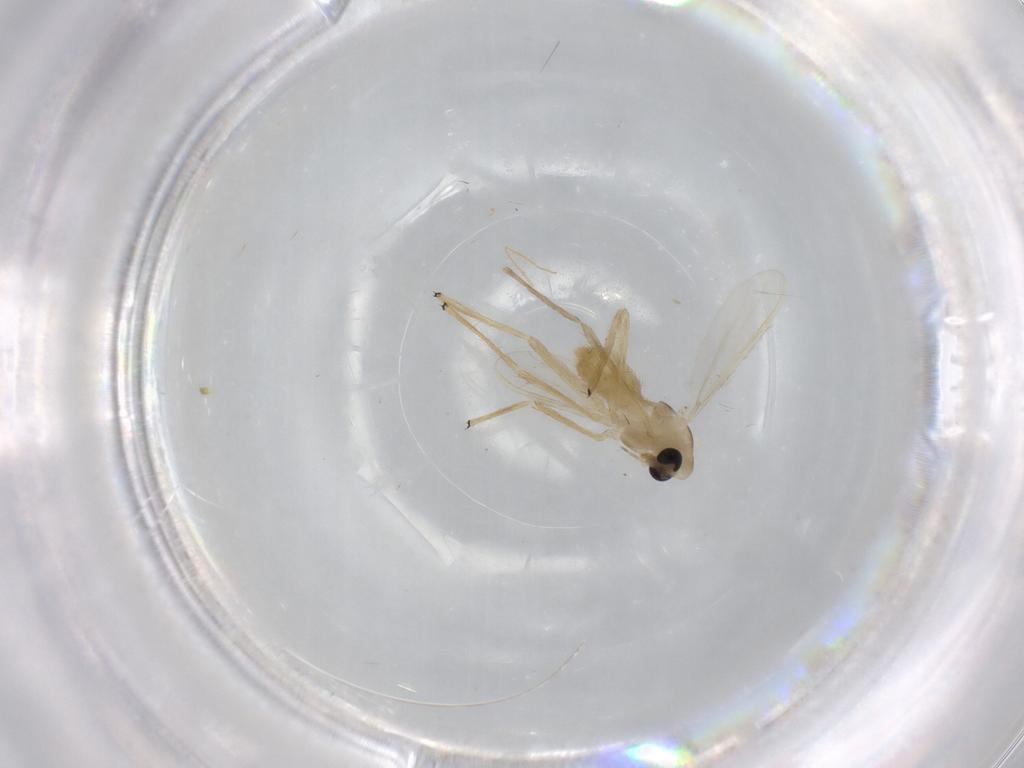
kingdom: Animalia
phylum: Arthropoda
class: Insecta
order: Diptera
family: Chironomidae
